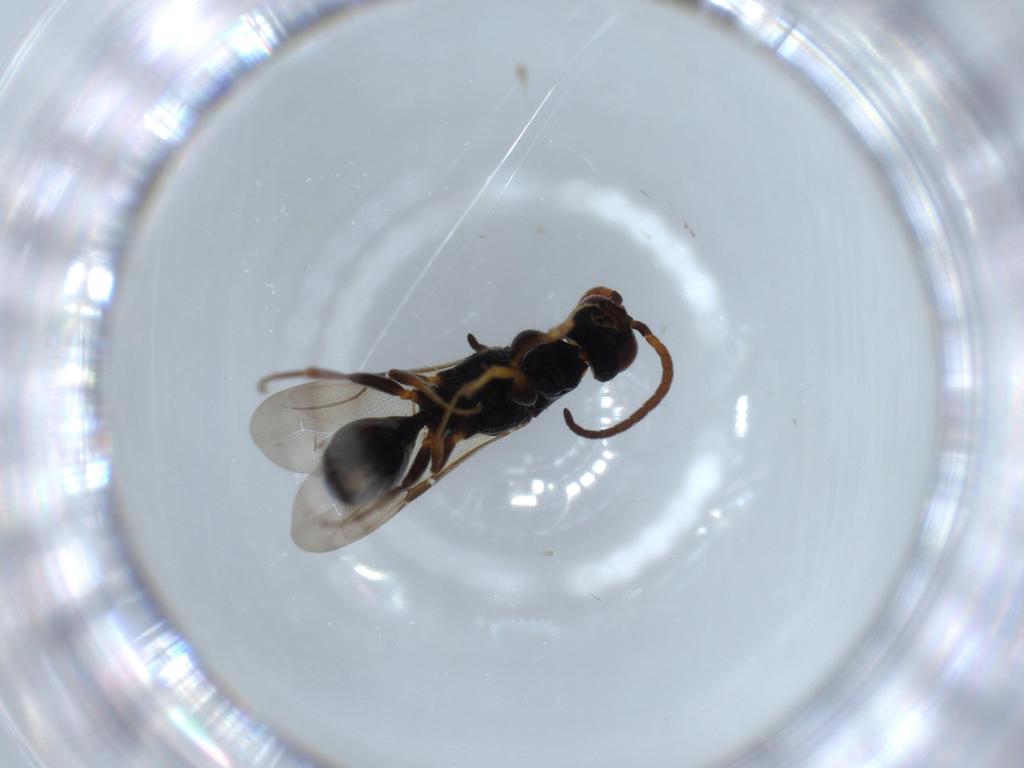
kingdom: Animalia
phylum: Arthropoda
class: Insecta
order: Hymenoptera
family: Bethylidae
